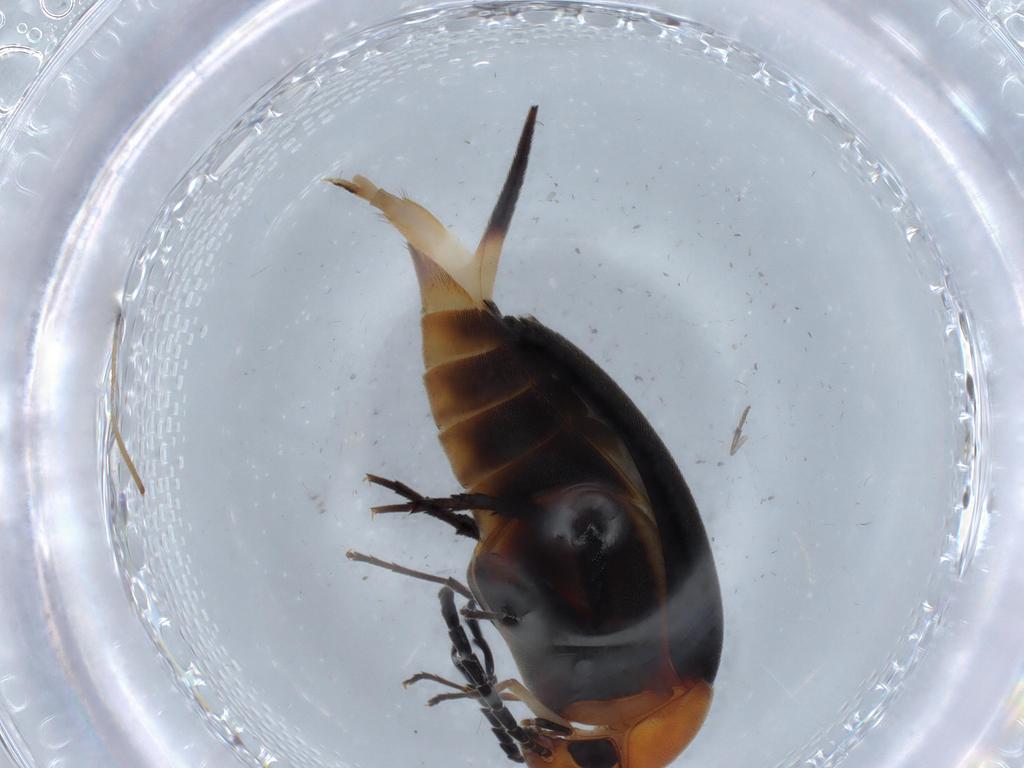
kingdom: Animalia
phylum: Arthropoda
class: Insecta
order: Coleoptera
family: Mordellidae
